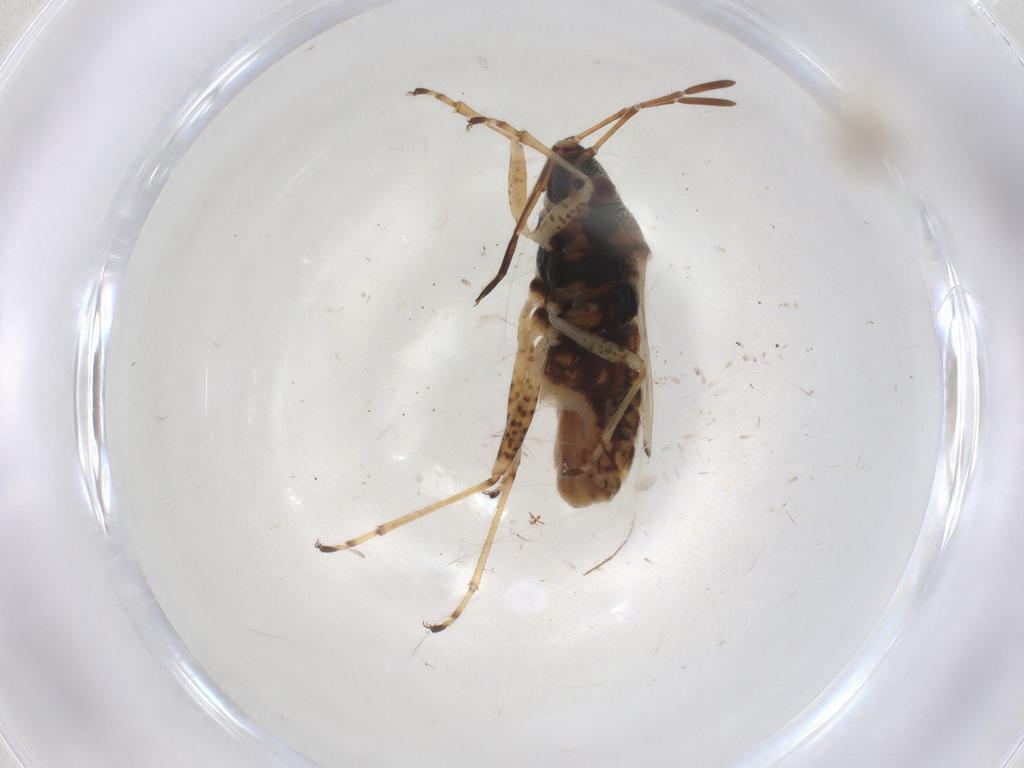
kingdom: Animalia
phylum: Arthropoda
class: Insecta
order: Hemiptera
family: Lygaeidae
